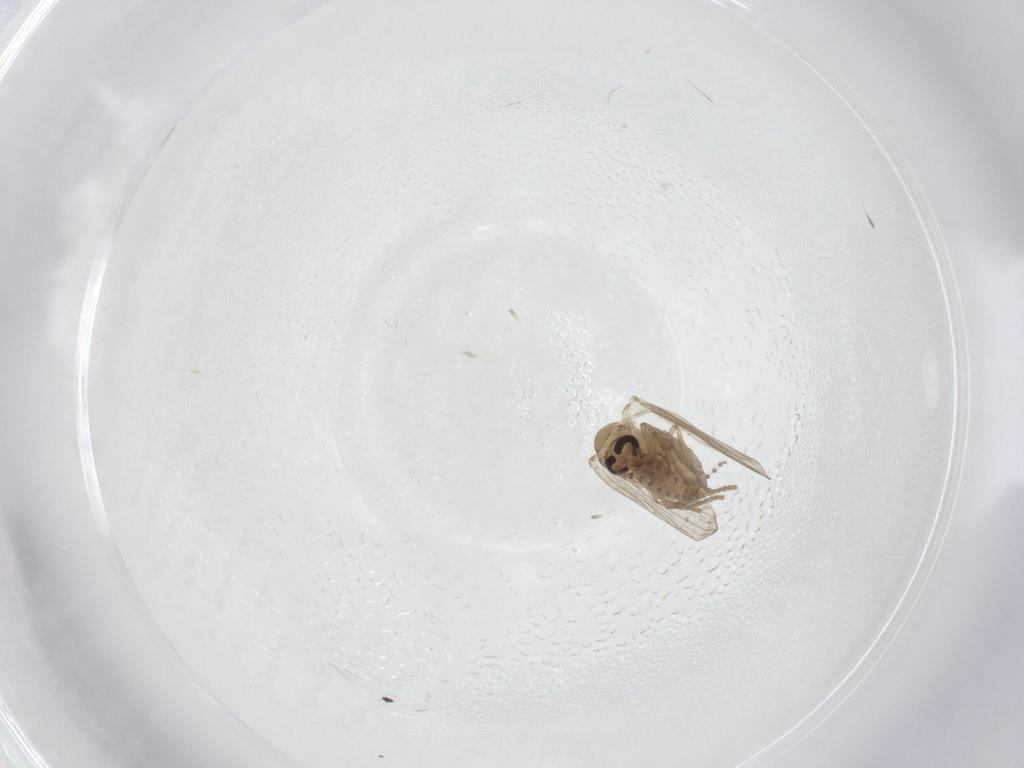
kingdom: Animalia
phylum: Arthropoda
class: Insecta
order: Diptera
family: Psychodidae
